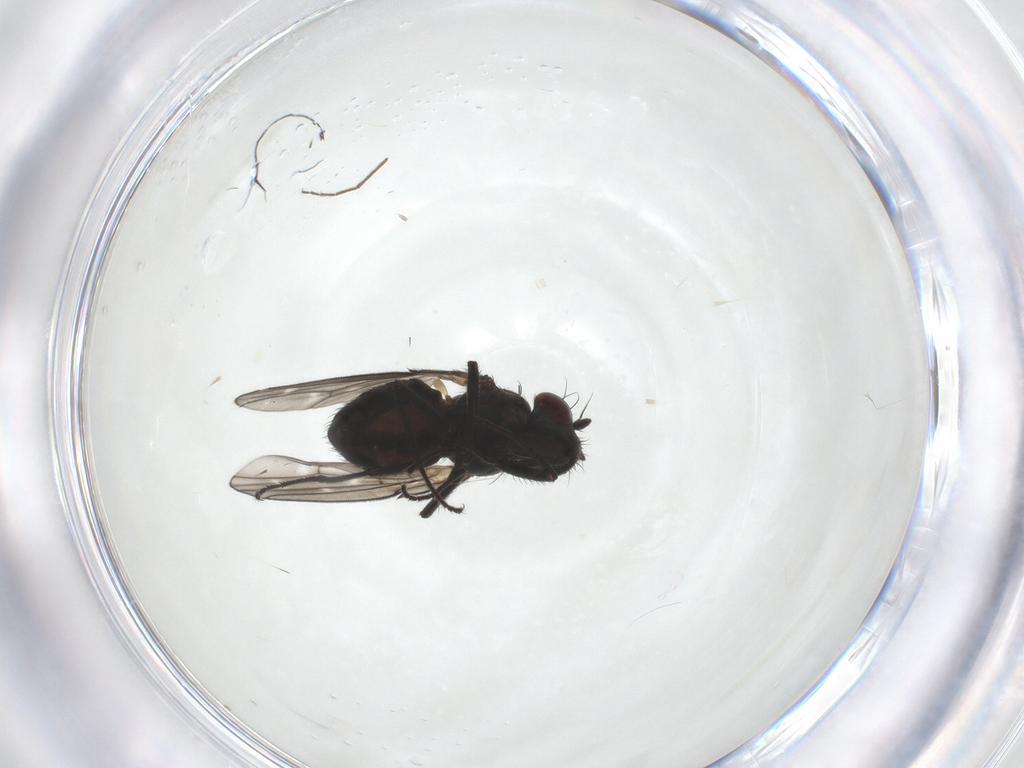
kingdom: Animalia
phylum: Arthropoda
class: Insecta
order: Diptera
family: Ephydridae
